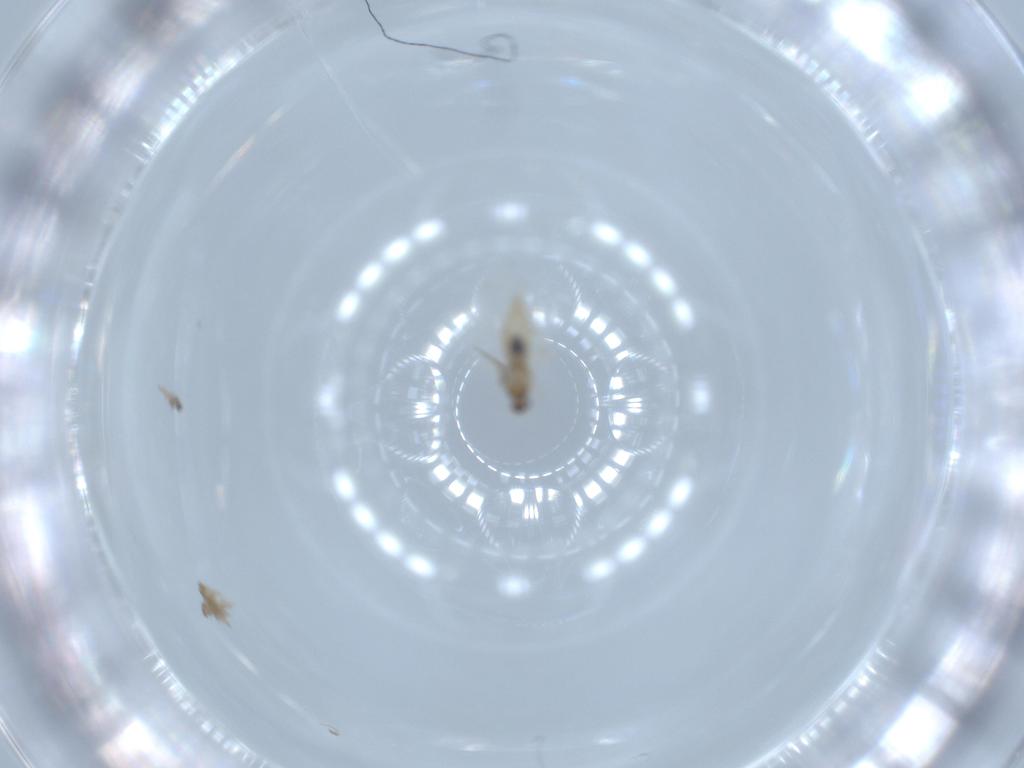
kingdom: Animalia
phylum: Arthropoda
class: Insecta
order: Diptera
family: Cecidomyiidae
